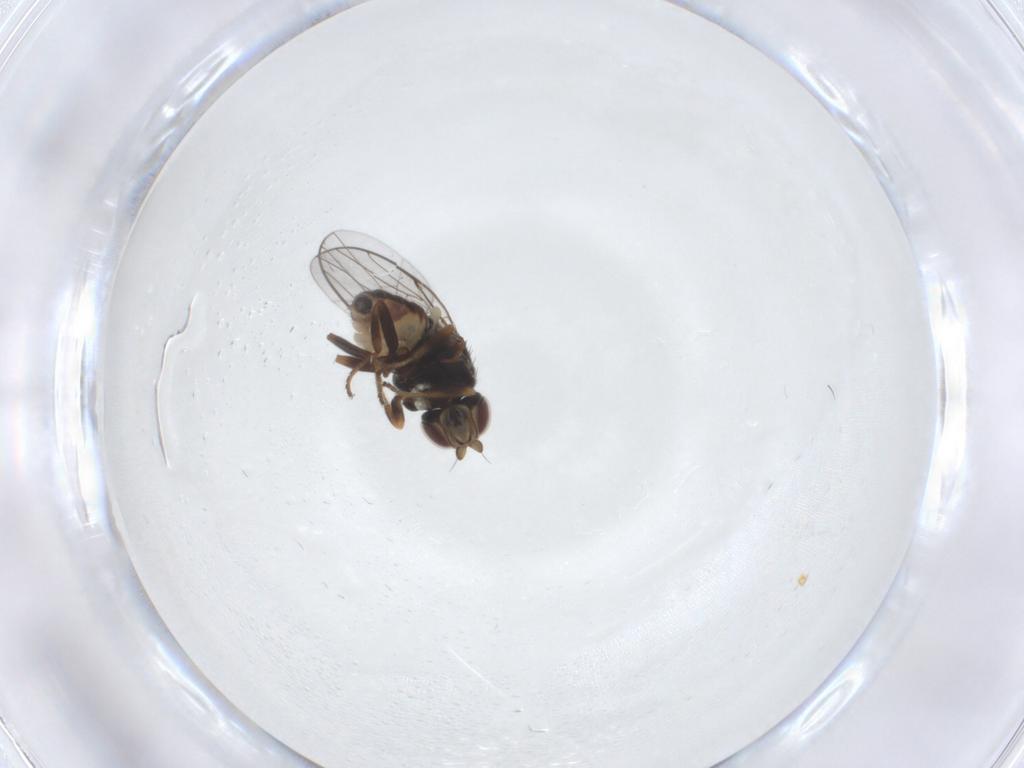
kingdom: Animalia
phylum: Arthropoda
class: Insecta
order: Diptera
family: Chloropidae
